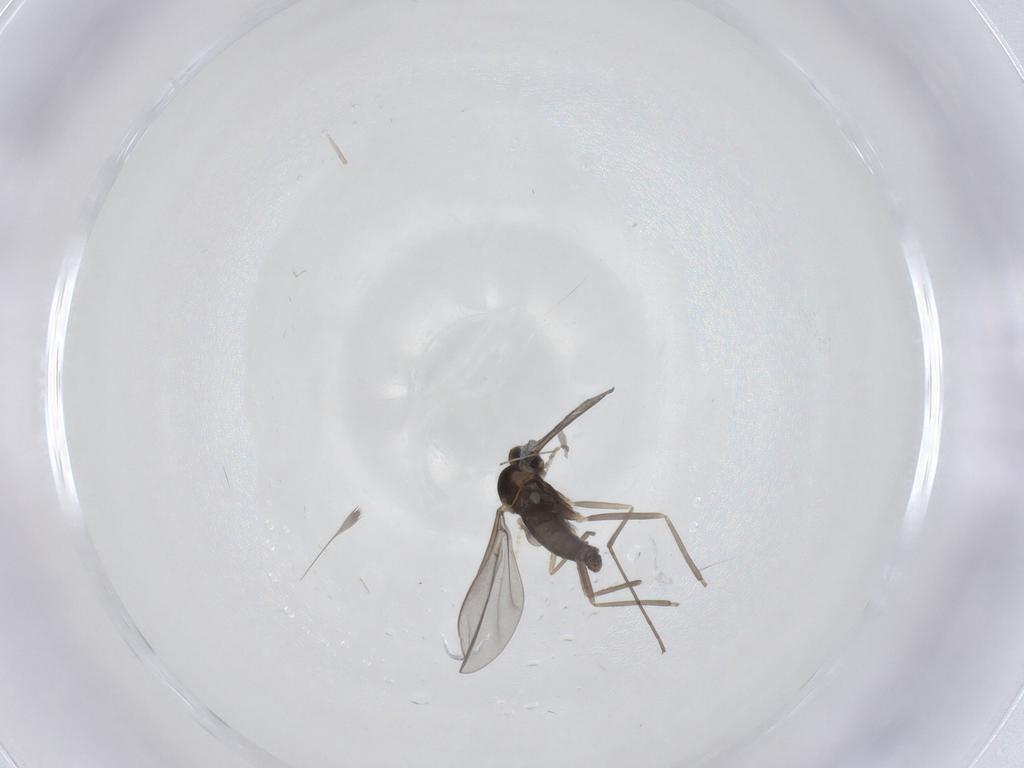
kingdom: Animalia
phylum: Arthropoda
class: Insecta
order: Diptera
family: Cecidomyiidae
